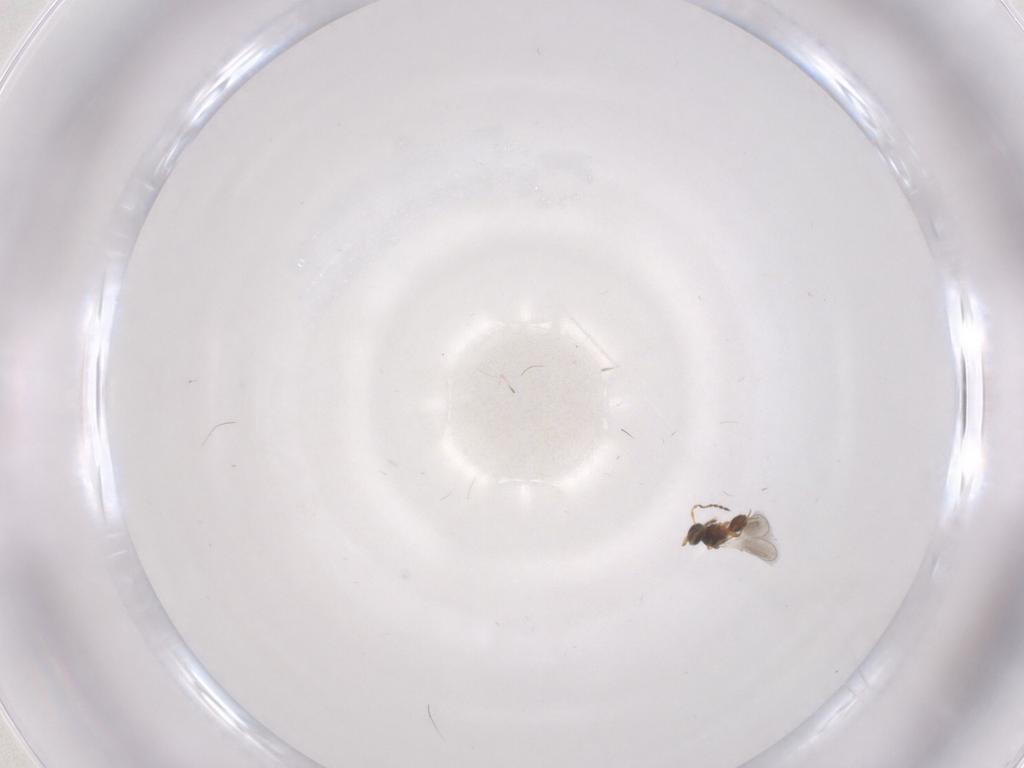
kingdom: Animalia
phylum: Arthropoda
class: Insecta
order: Hymenoptera
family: Platygastridae
